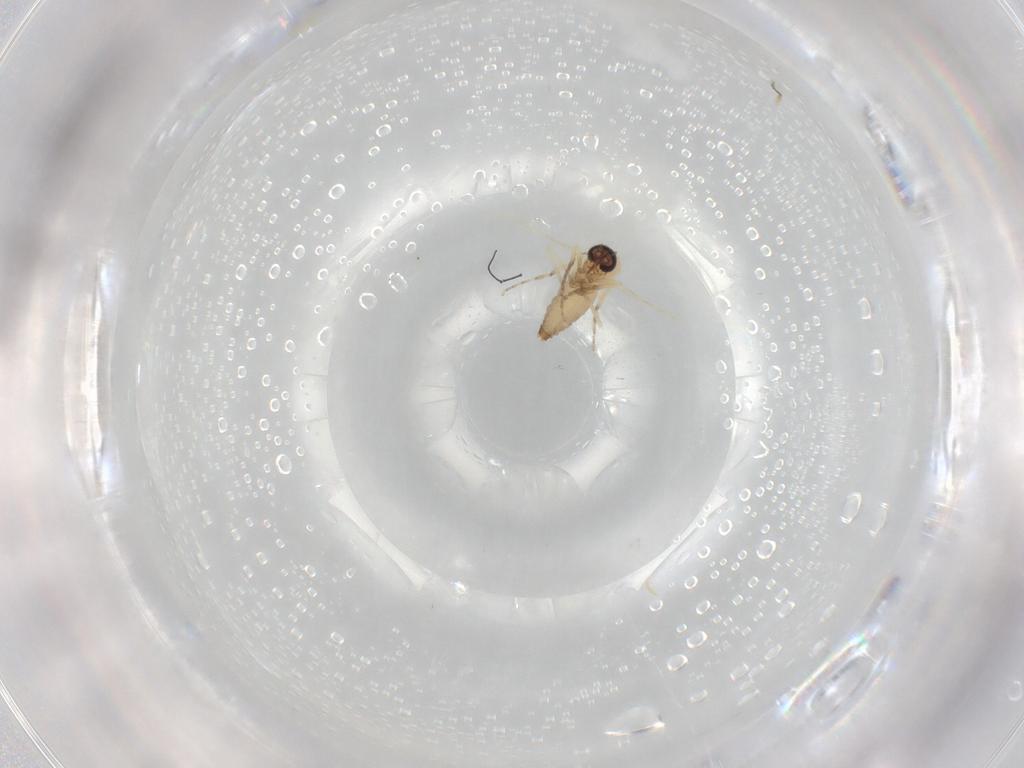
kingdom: Animalia
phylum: Arthropoda
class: Insecta
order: Diptera
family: Ceratopogonidae
